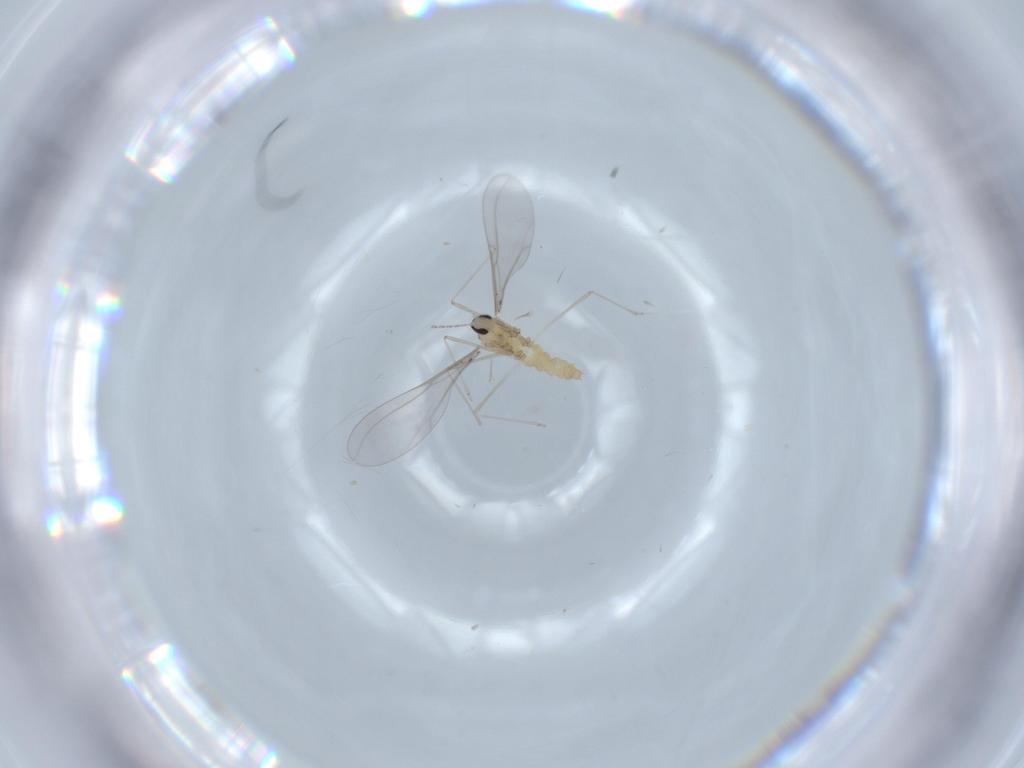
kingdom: Animalia
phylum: Arthropoda
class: Insecta
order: Diptera
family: Cecidomyiidae
